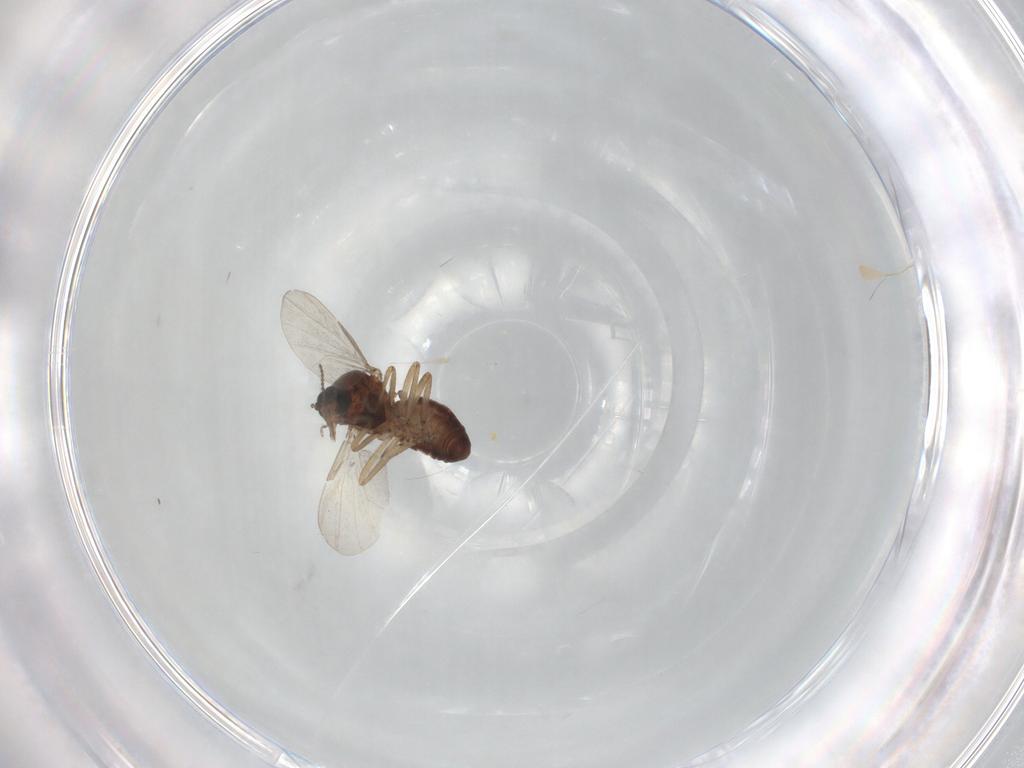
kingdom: Animalia
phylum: Arthropoda
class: Insecta
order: Diptera
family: Ceratopogonidae
